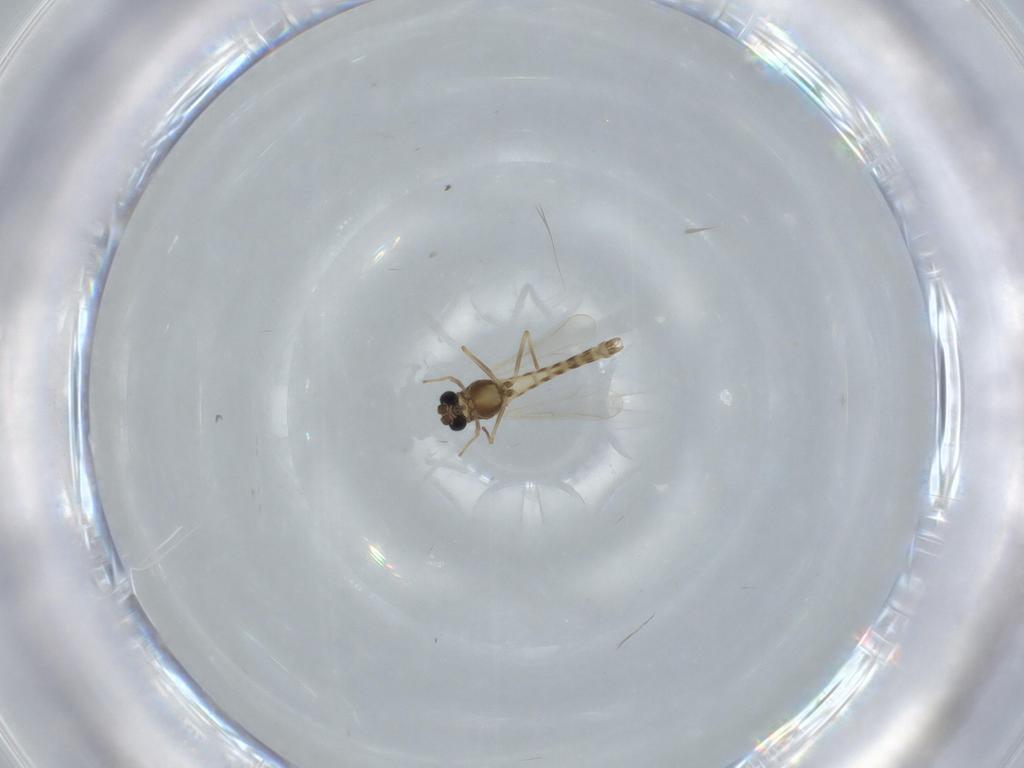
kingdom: Animalia
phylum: Arthropoda
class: Insecta
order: Diptera
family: Chironomidae
